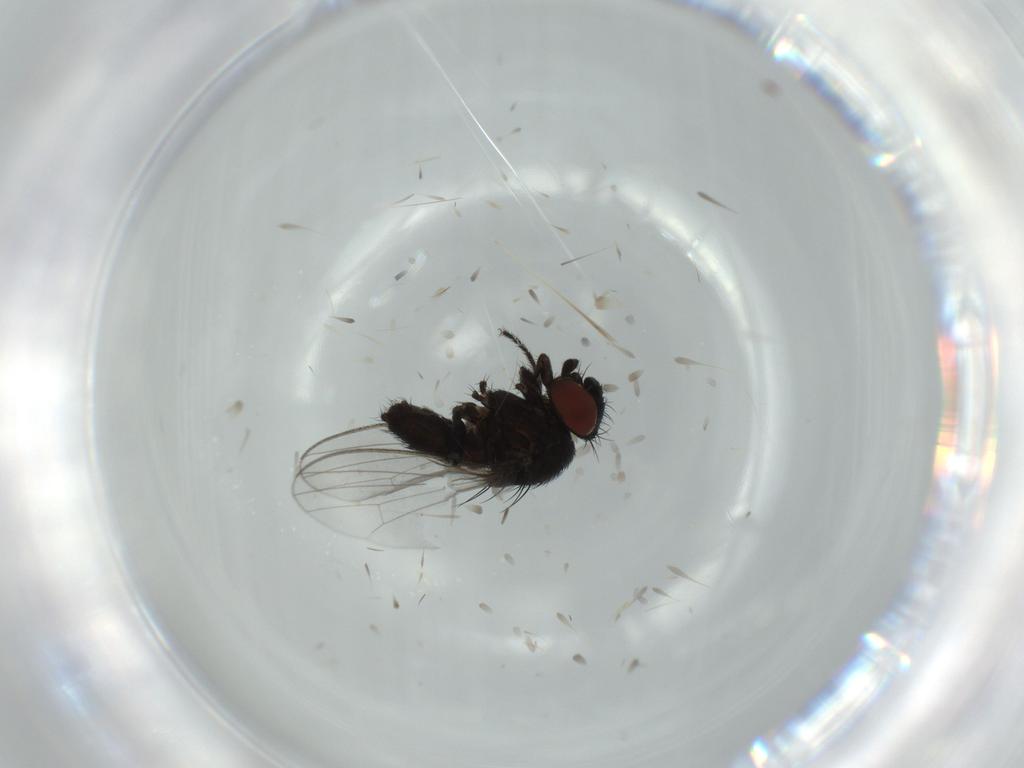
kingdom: Animalia
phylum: Arthropoda
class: Insecta
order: Diptera
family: Milichiidae
